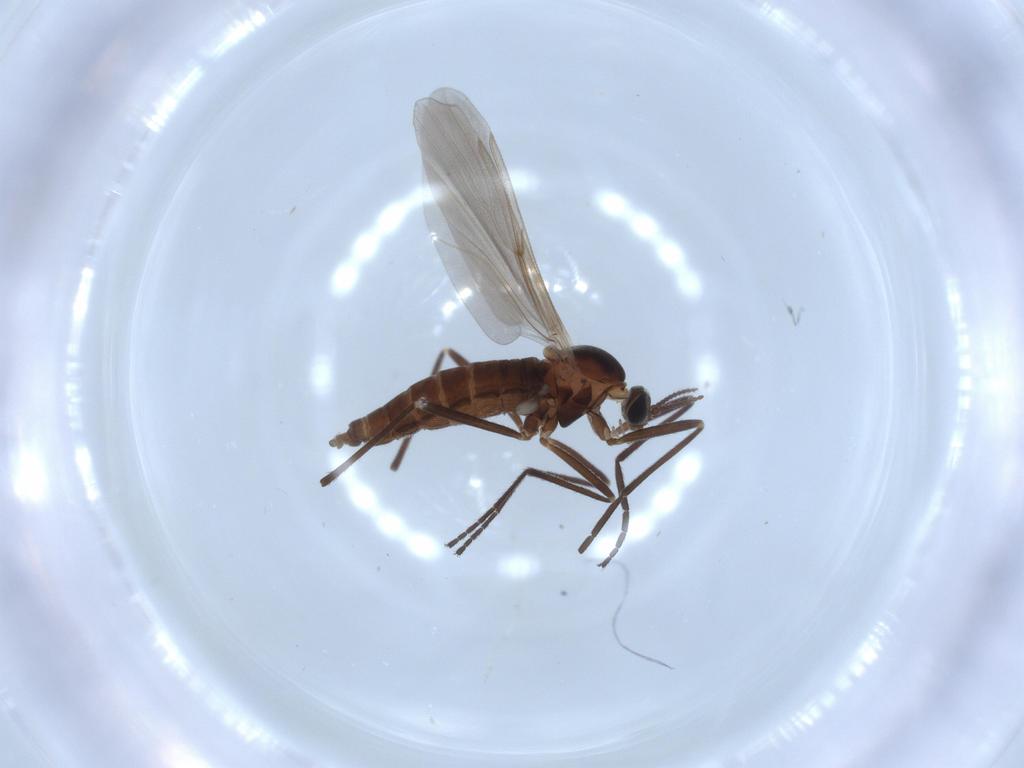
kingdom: Animalia
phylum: Arthropoda
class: Insecta
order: Diptera
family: Cecidomyiidae
